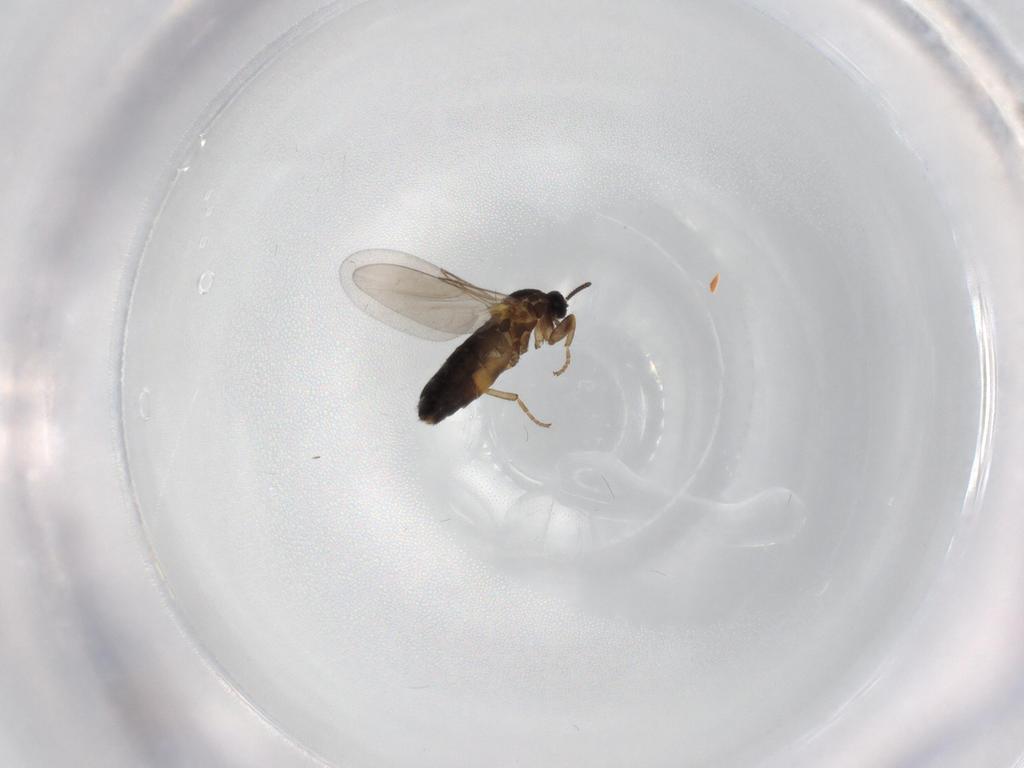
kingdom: Animalia
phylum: Arthropoda
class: Insecta
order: Diptera
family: Scatopsidae
